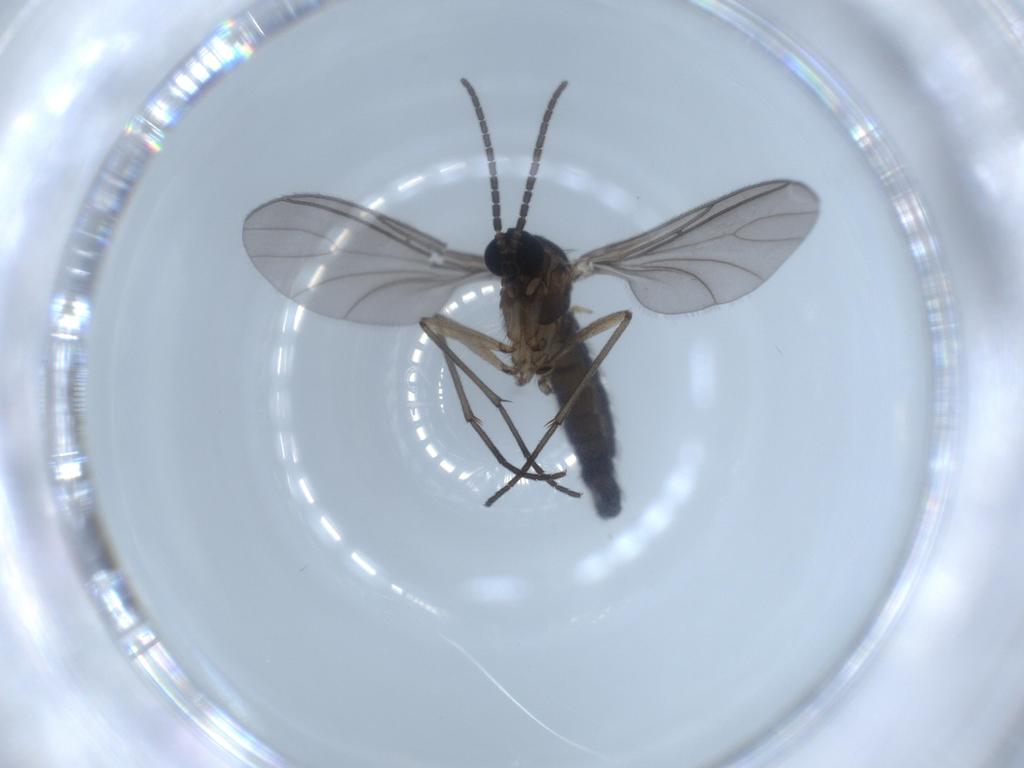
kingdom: Animalia
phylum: Arthropoda
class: Insecta
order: Diptera
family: Sciaridae
